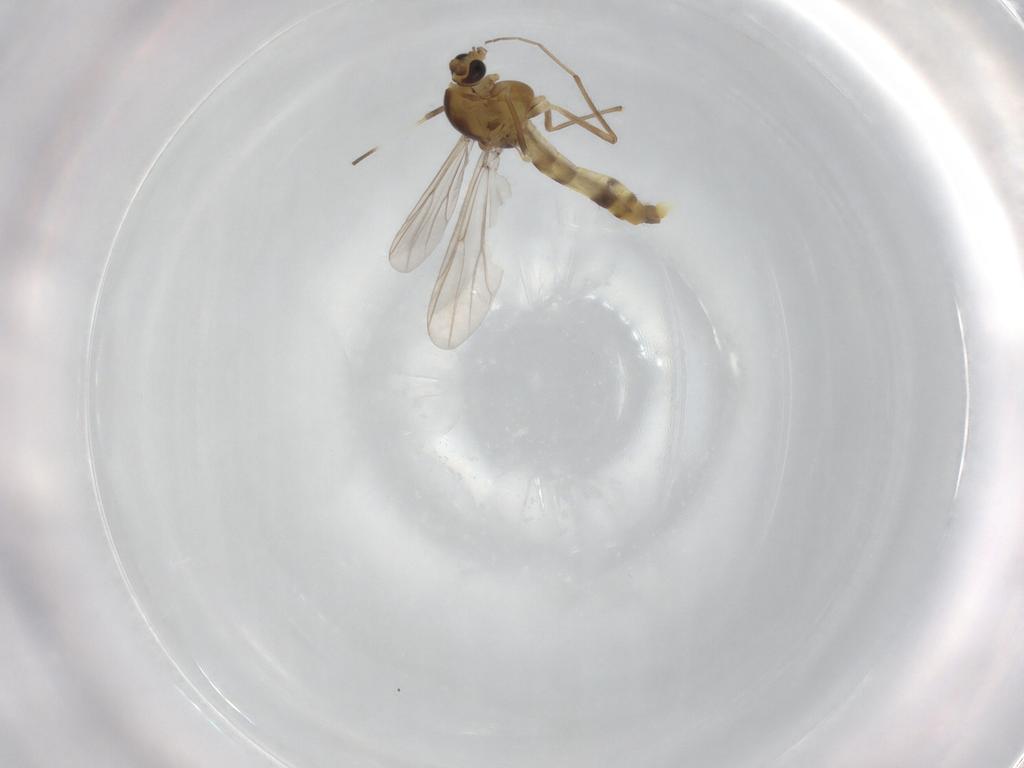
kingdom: Animalia
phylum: Arthropoda
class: Insecta
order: Diptera
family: Chironomidae
